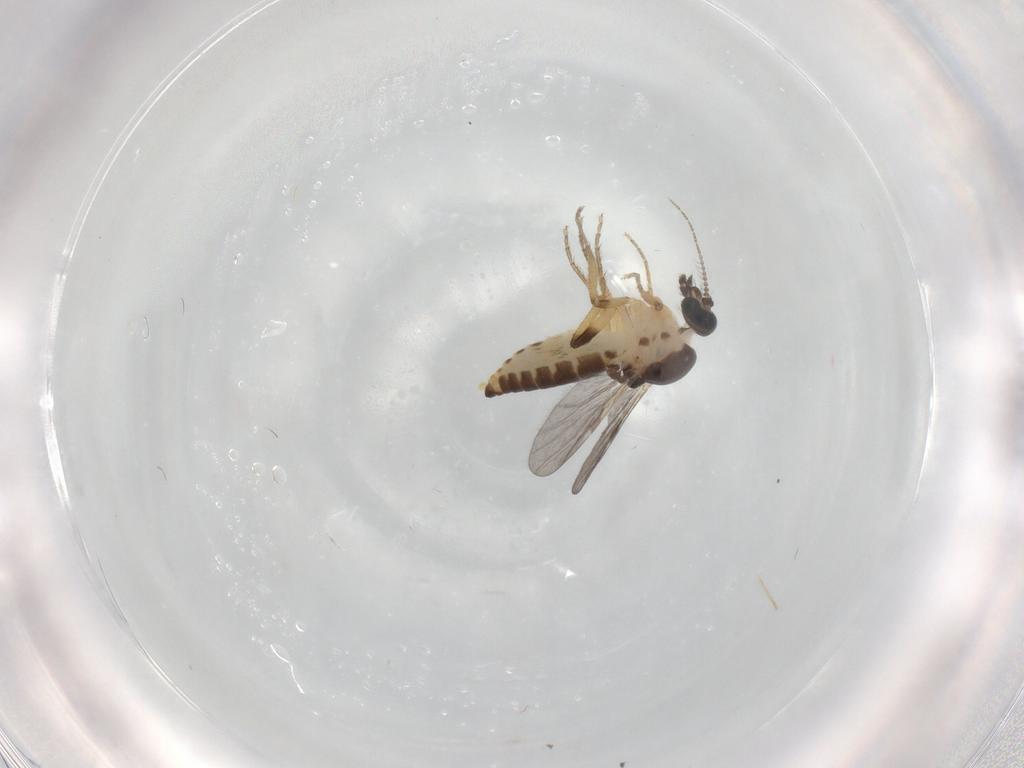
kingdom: Animalia
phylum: Arthropoda
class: Insecta
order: Diptera
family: Ceratopogonidae
